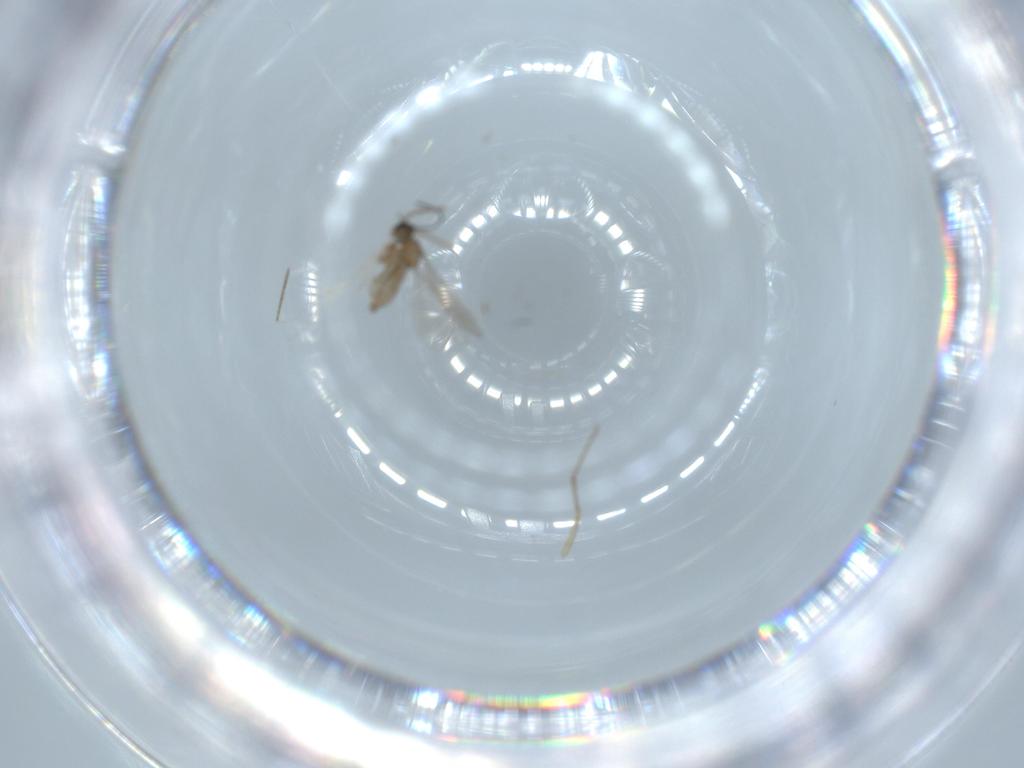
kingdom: Animalia
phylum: Arthropoda
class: Insecta
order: Diptera
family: Cecidomyiidae
